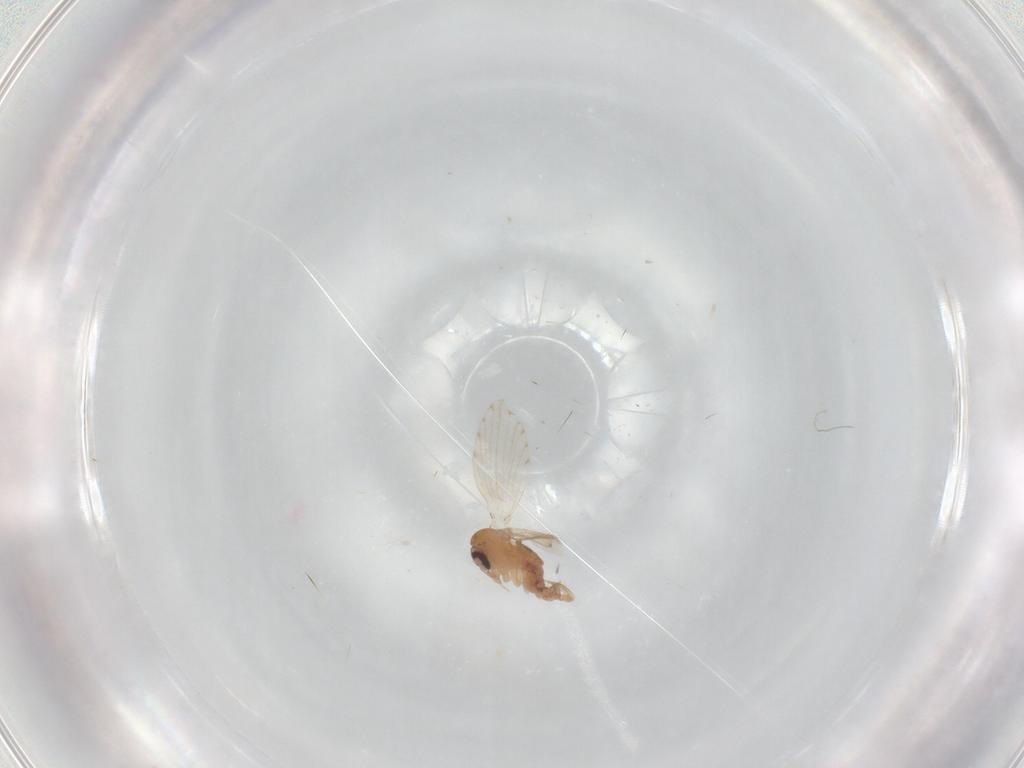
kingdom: Animalia
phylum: Arthropoda
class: Insecta
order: Diptera
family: Psychodidae
